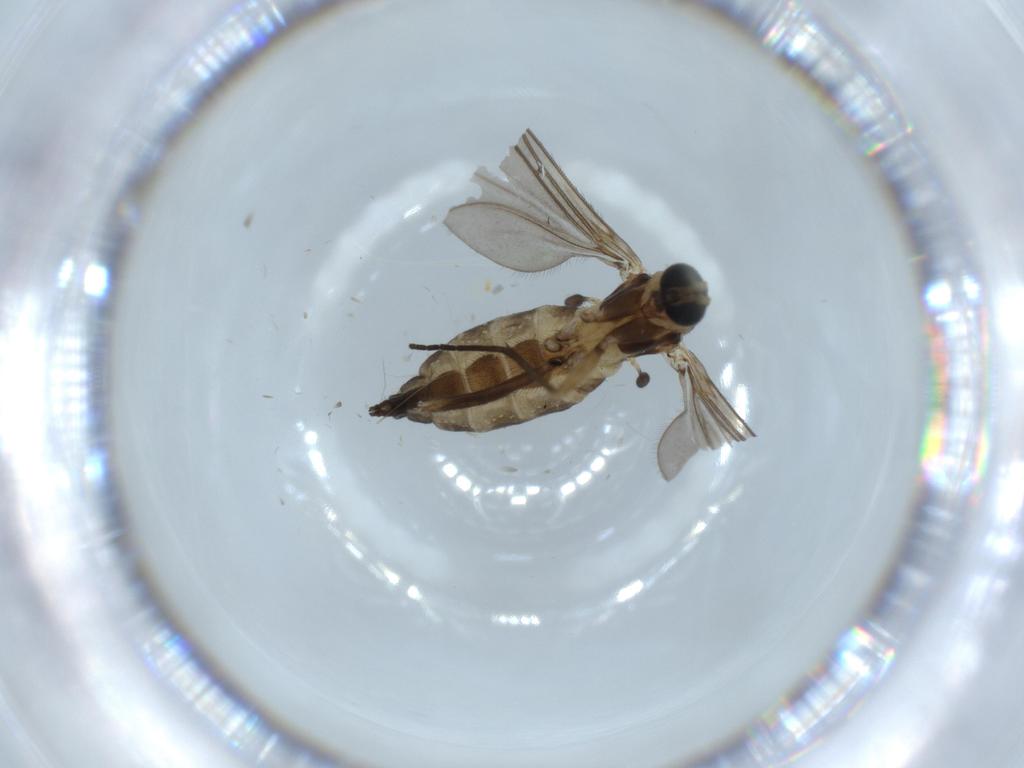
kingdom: Animalia
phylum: Arthropoda
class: Insecta
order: Diptera
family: Sciaridae
